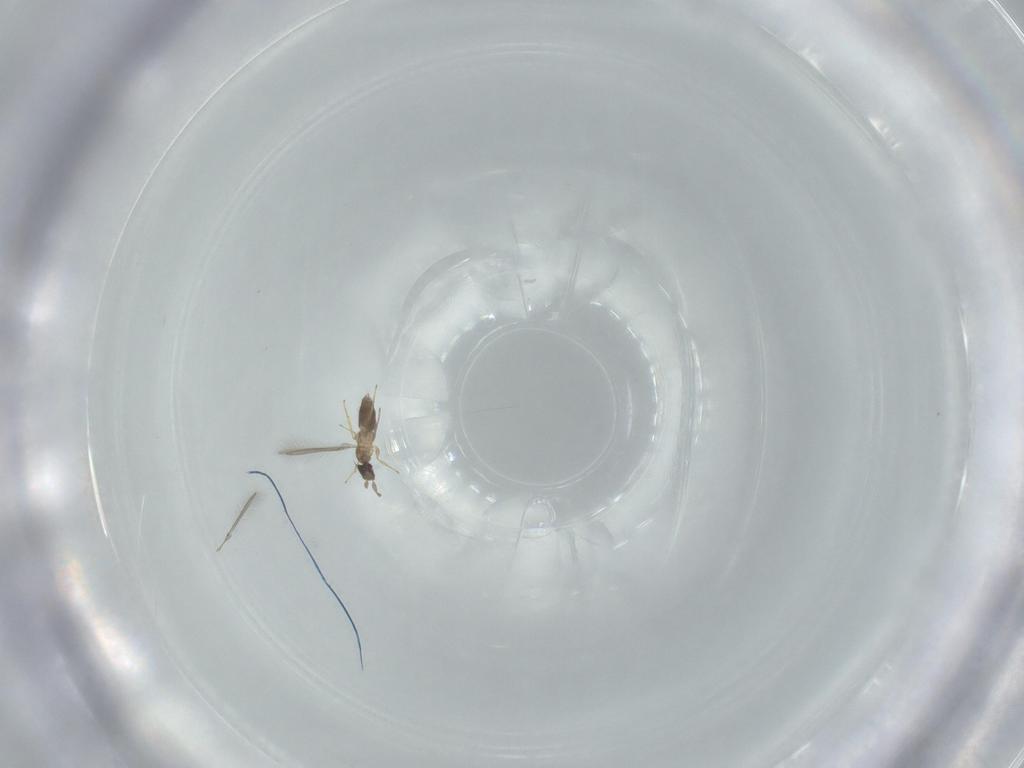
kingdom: Animalia
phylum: Arthropoda
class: Insecta
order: Hymenoptera
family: Mymaridae
